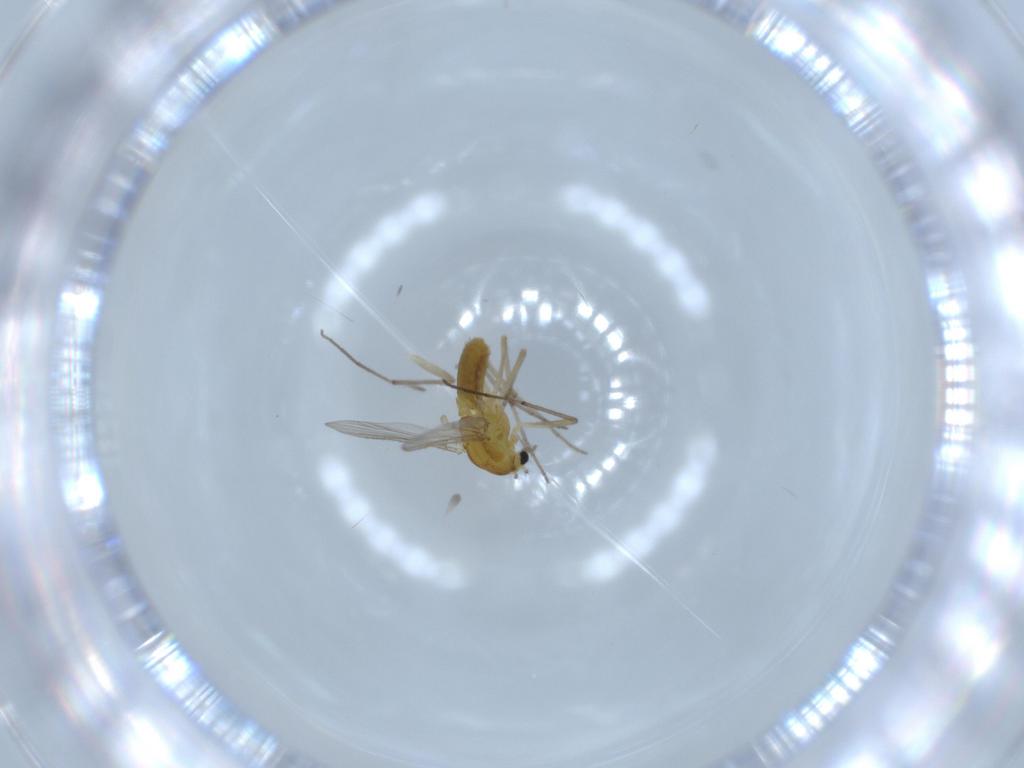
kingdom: Animalia
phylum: Arthropoda
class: Insecta
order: Diptera
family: Chironomidae
